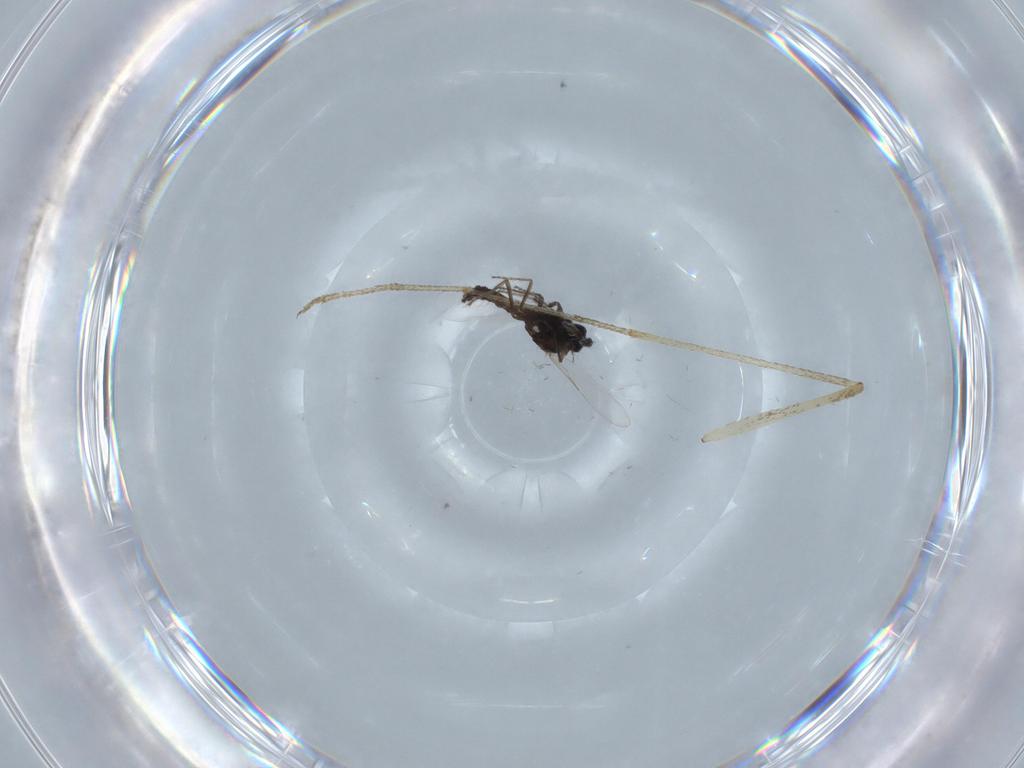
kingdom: Animalia
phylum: Arthropoda
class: Insecta
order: Diptera
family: Ceratopogonidae
